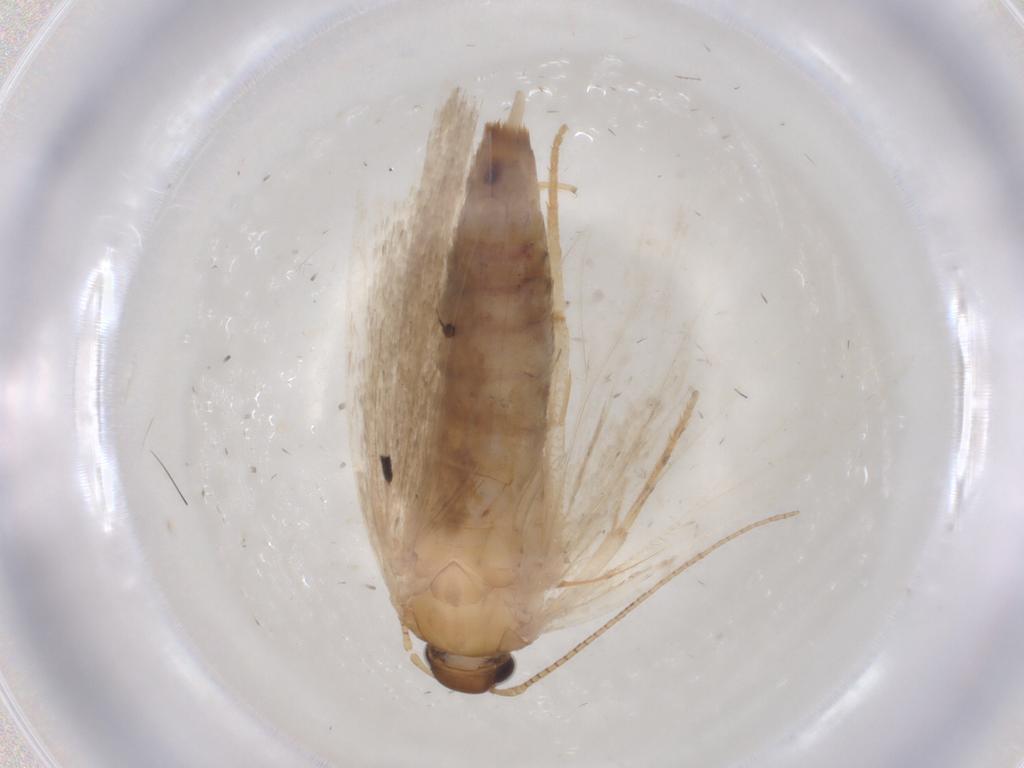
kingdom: Animalia
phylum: Arthropoda
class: Insecta
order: Lepidoptera
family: Gelechiidae
